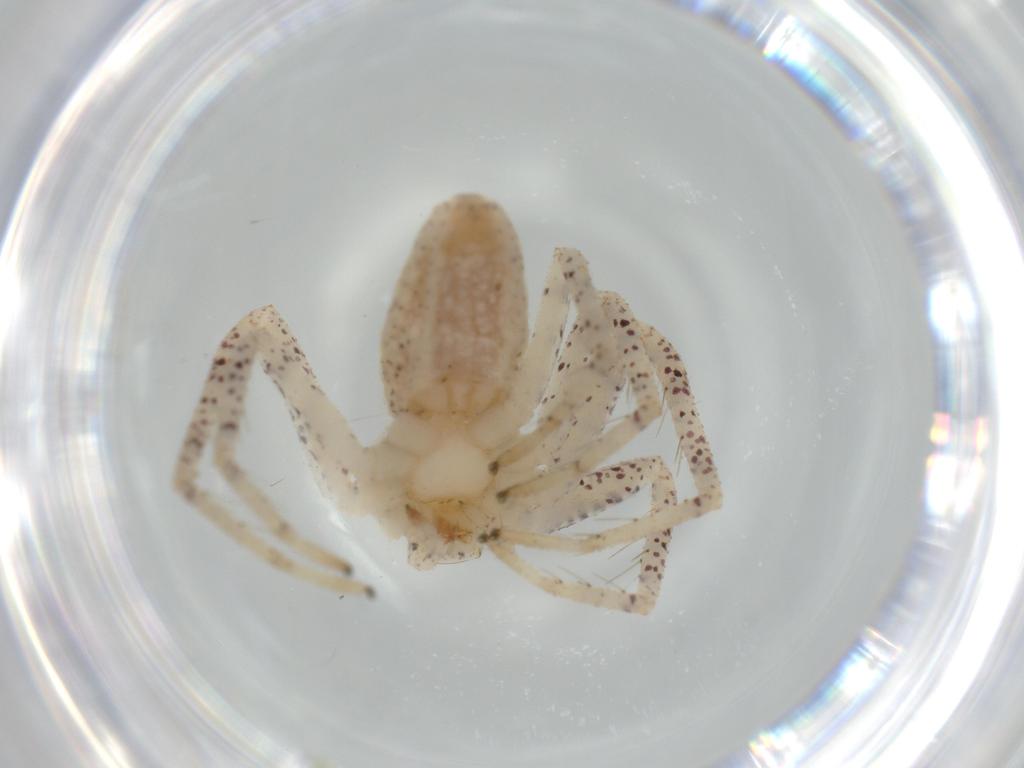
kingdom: Animalia
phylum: Arthropoda
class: Arachnida
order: Araneae
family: Philodromidae
